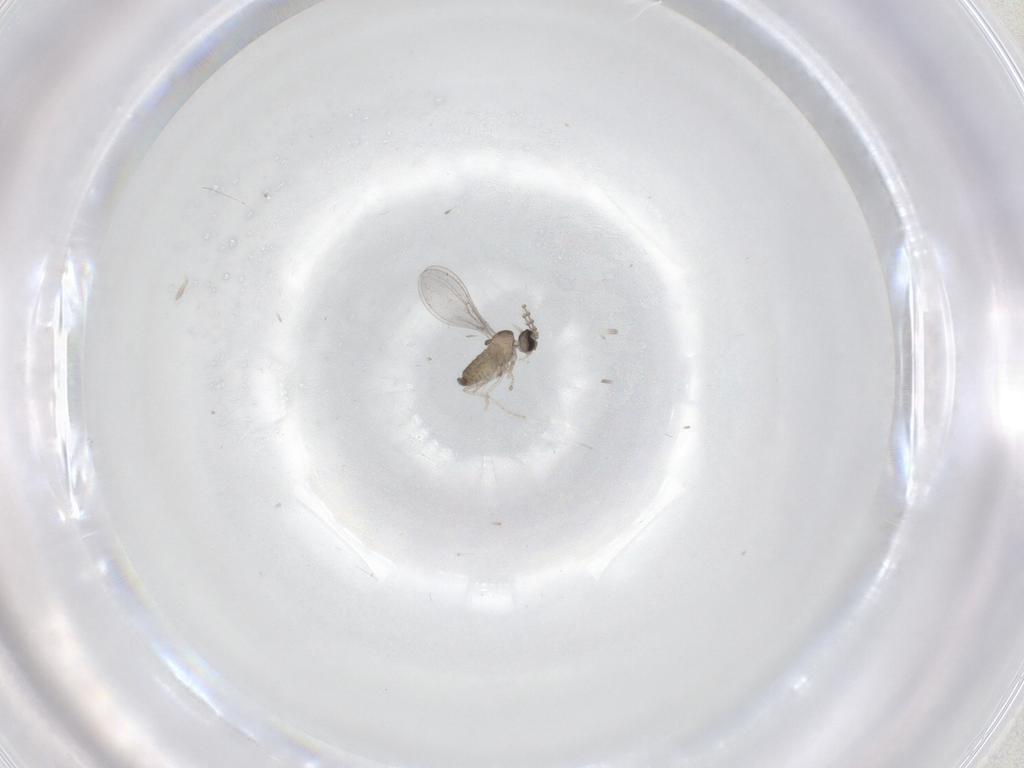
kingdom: Animalia
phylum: Arthropoda
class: Insecta
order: Diptera
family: Cecidomyiidae
